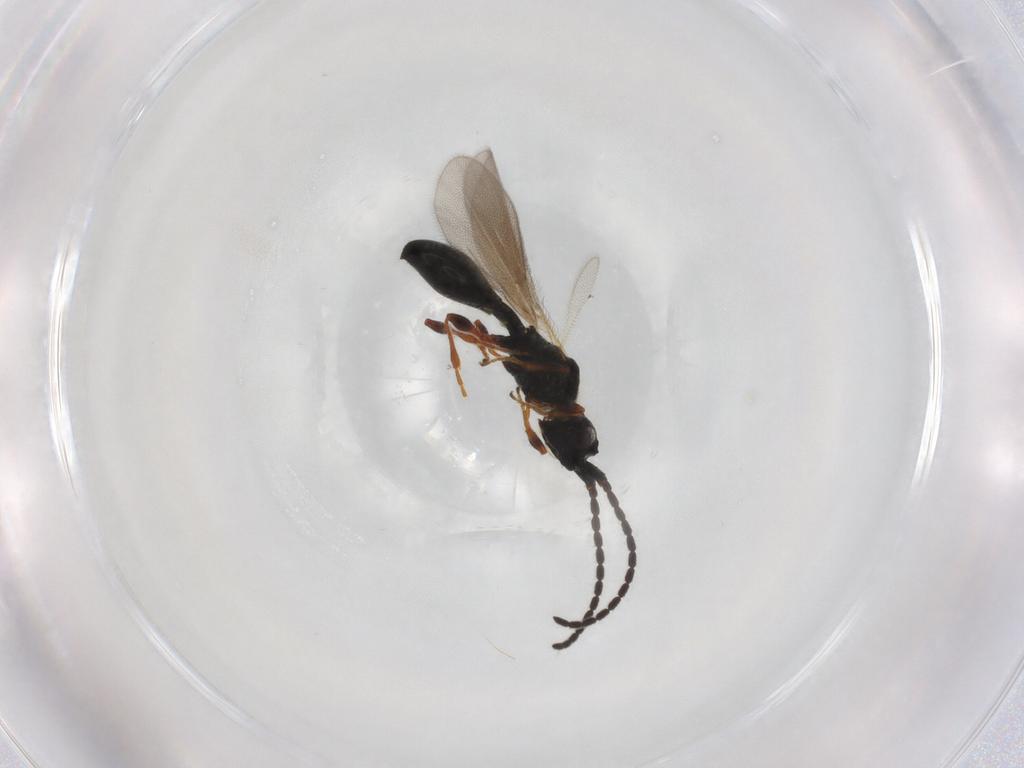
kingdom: Animalia
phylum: Arthropoda
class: Insecta
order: Hymenoptera
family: Diapriidae
